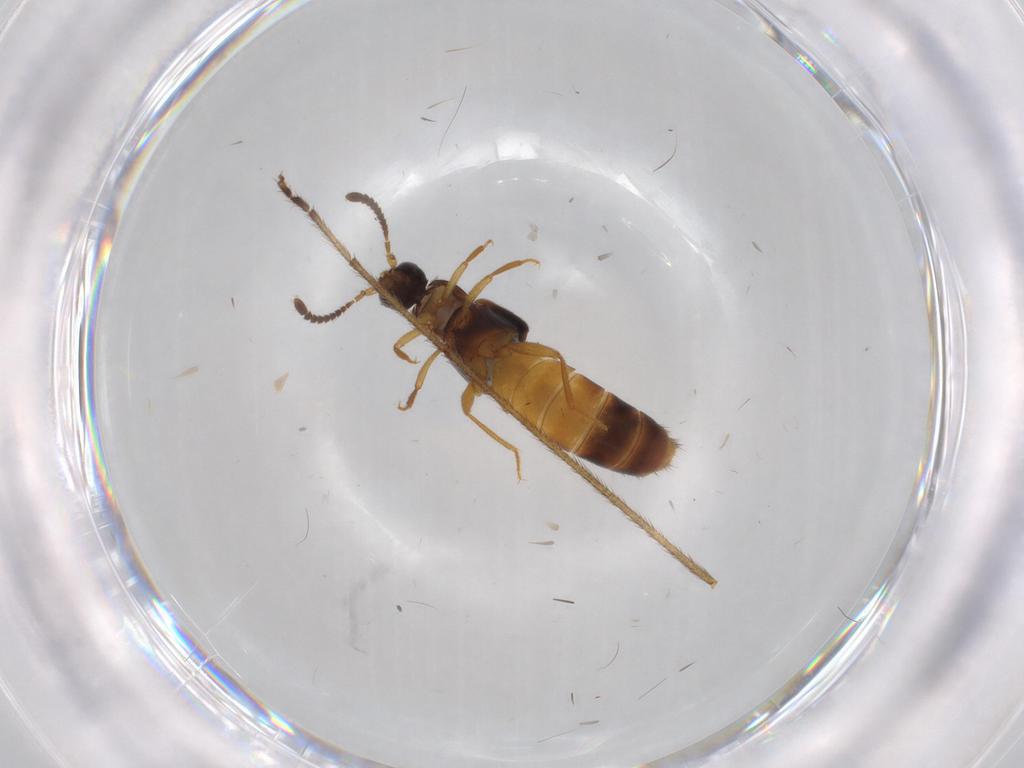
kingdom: Animalia
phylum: Arthropoda
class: Insecta
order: Coleoptera
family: Staphylinidae
